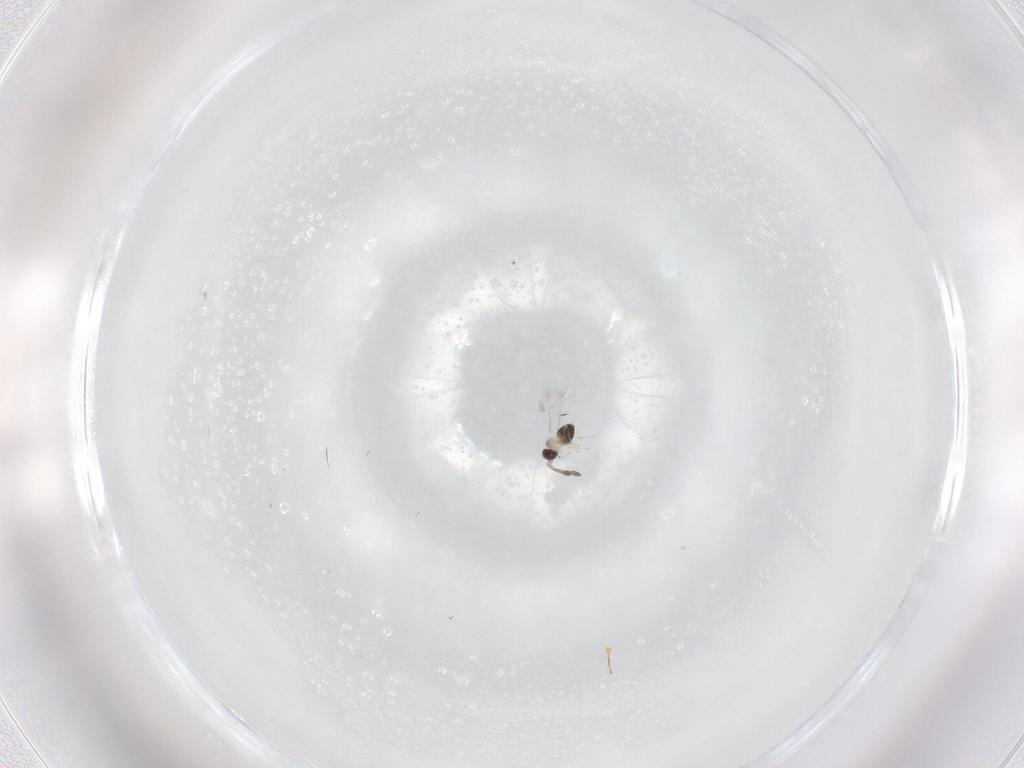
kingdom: Animalia
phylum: Arthropoda
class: Insecta
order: Hymenoptera
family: Scelionidae
